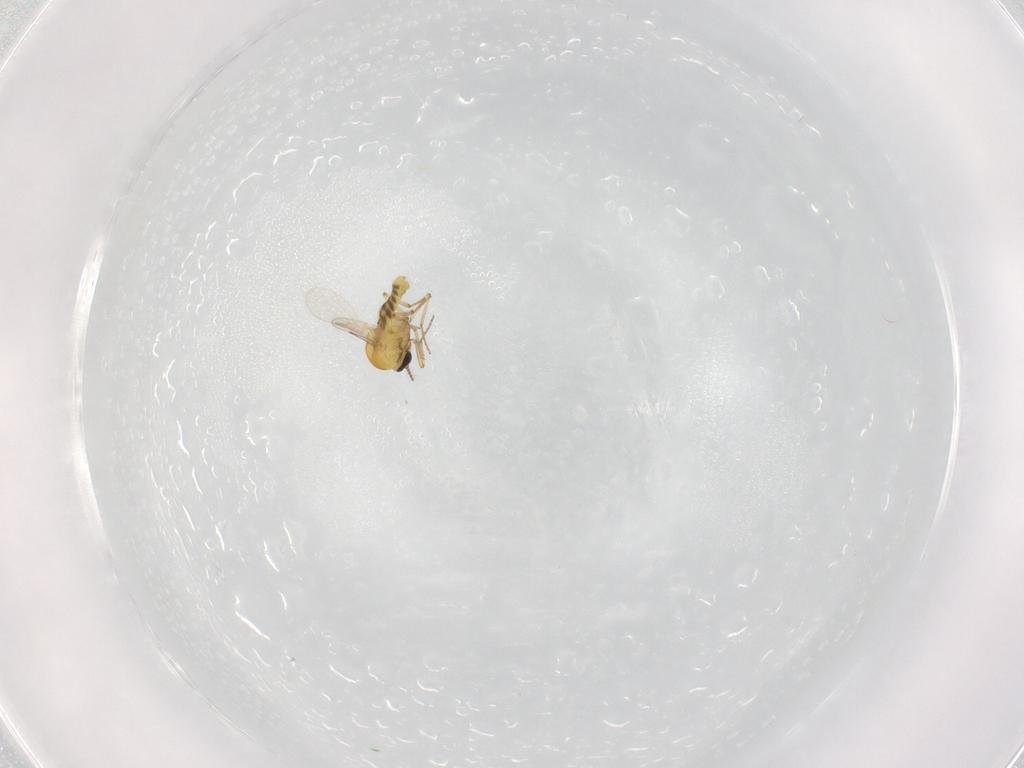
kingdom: Animalia
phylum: Arthropoda
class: Insecta
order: Diptera
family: Ceratopogonidae
